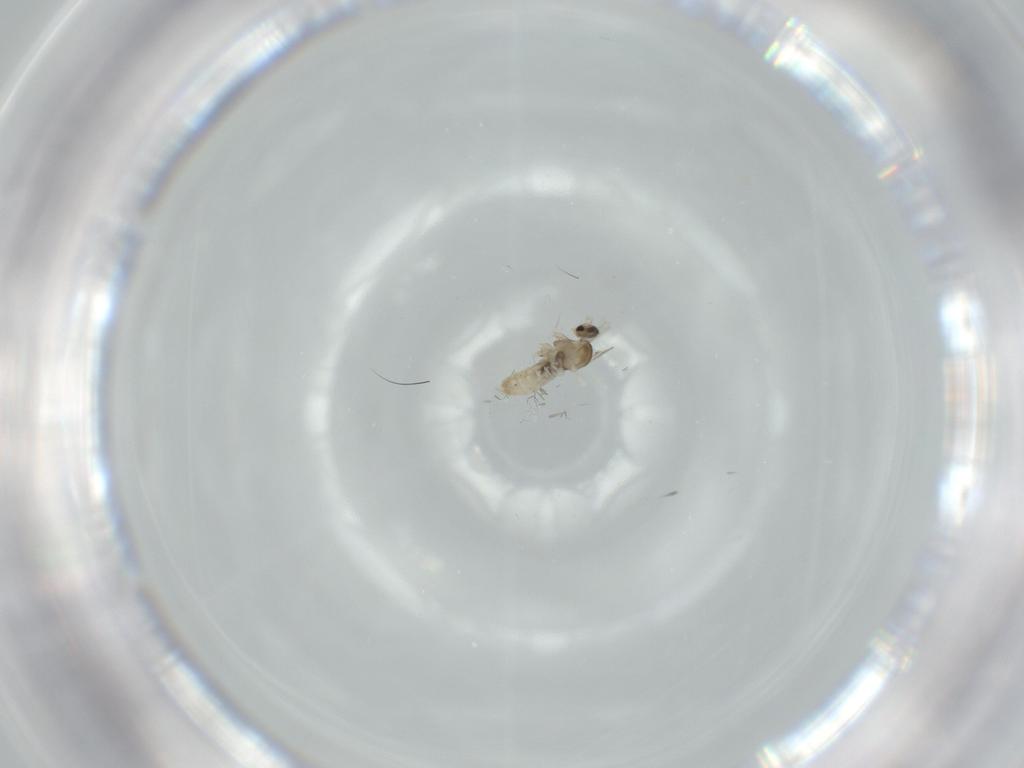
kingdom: Animalia
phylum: Arthropoda
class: Insecta
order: Diptera
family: Cecidomyiidae
